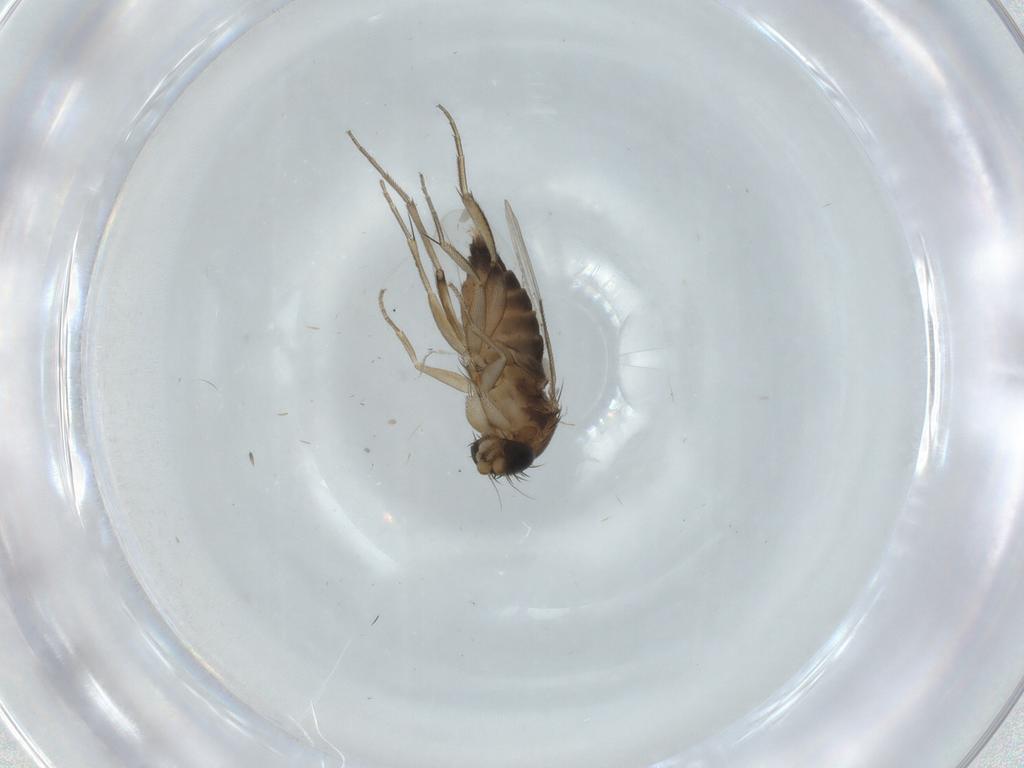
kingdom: Animalia
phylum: Arthropoda
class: Insecta
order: Diptera
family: Phoridae
